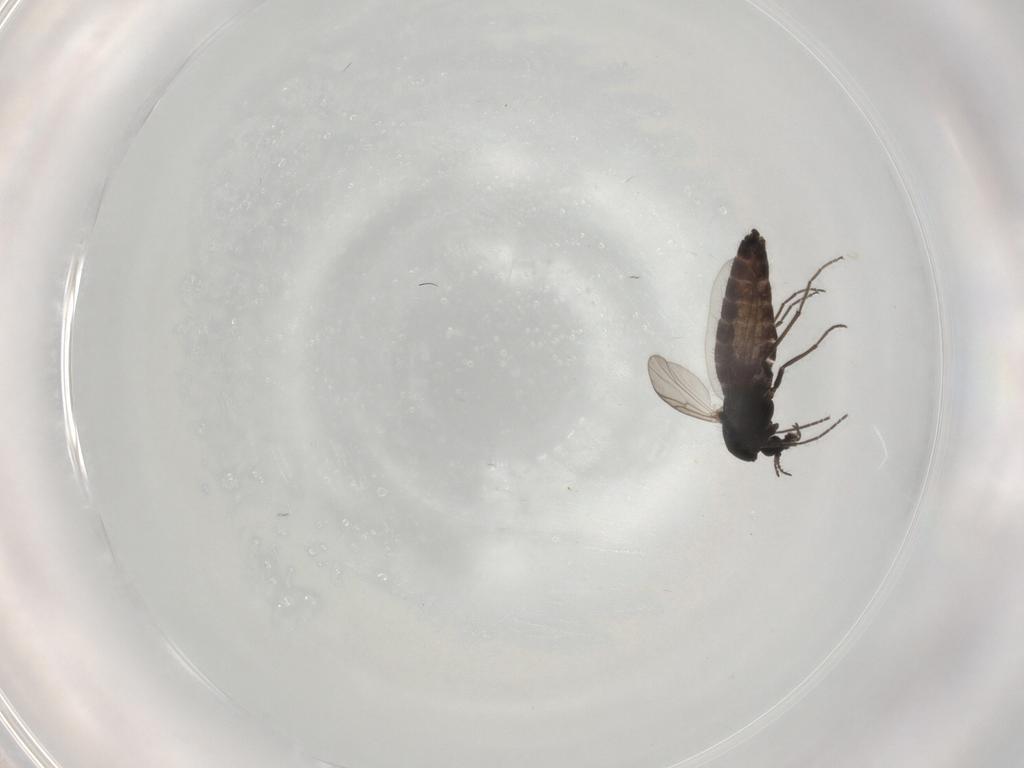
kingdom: Animalia
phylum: Arthropoda
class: Insecta
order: Diptera
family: Chironomidae
